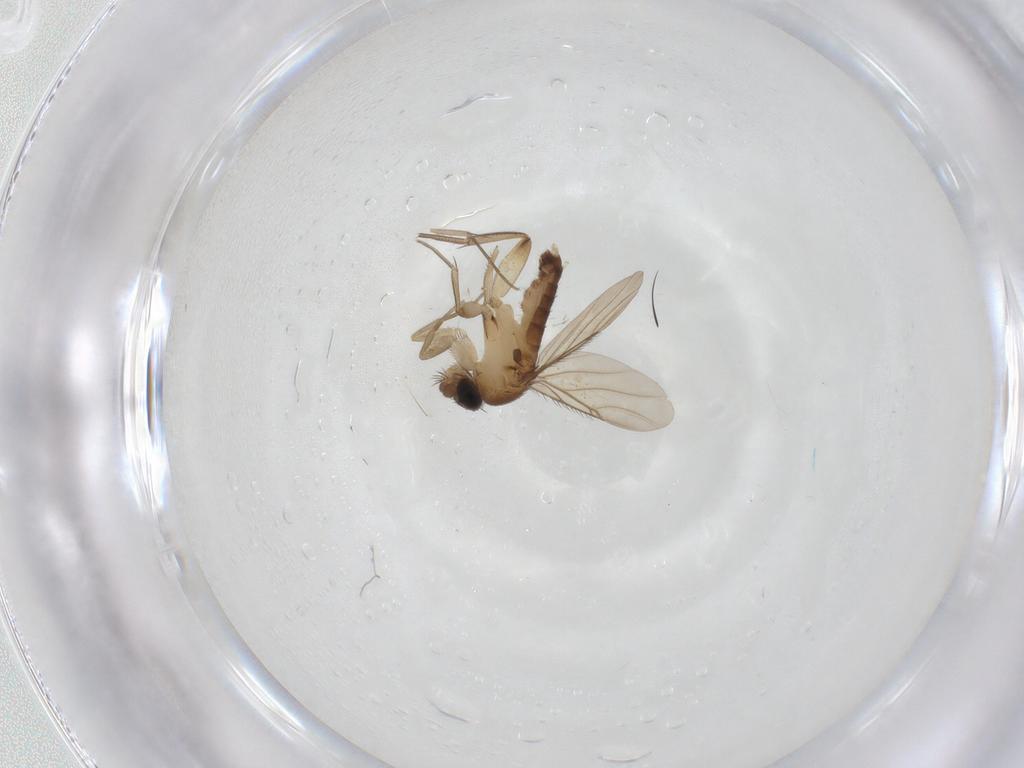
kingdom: Animalia
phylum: Arthropoda
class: Insecta
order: Diptera
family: Phoridae
